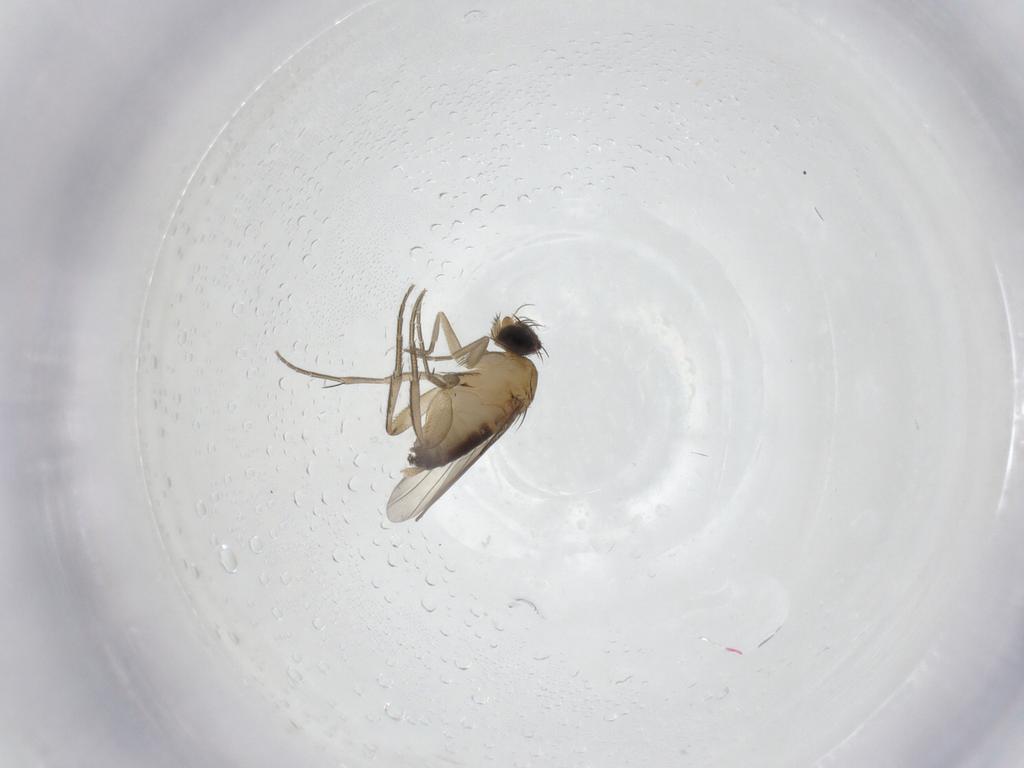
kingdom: Animalia
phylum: Arthropoda
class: Insecta
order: Diptera
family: Phoridae
